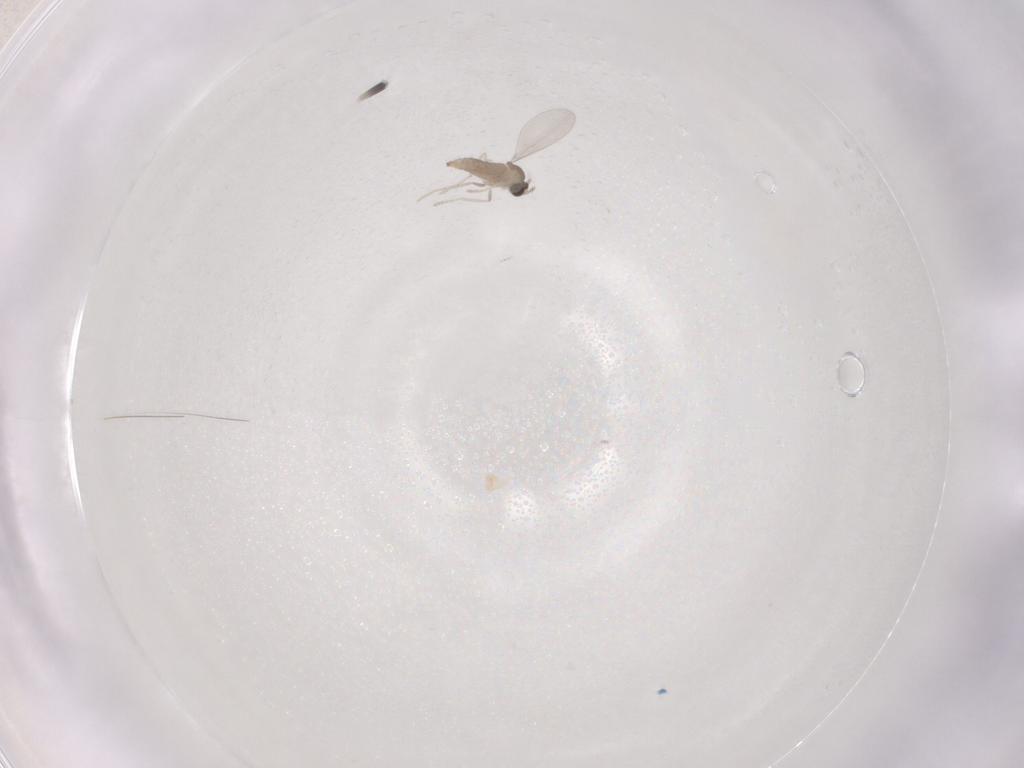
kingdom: Animalia
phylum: Arthropoda
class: Insecta
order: Diptera
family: Cecidomyiidae
